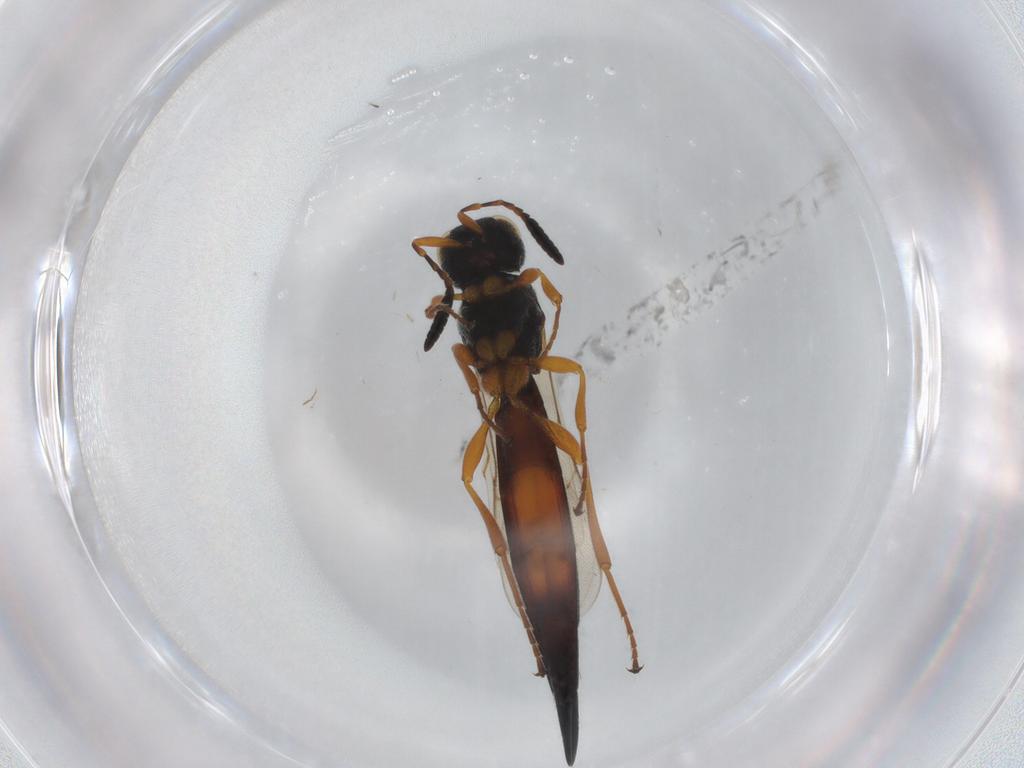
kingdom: Animalia
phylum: Arthropoda
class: Insecta
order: Hymenoptera
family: Scelionidae
